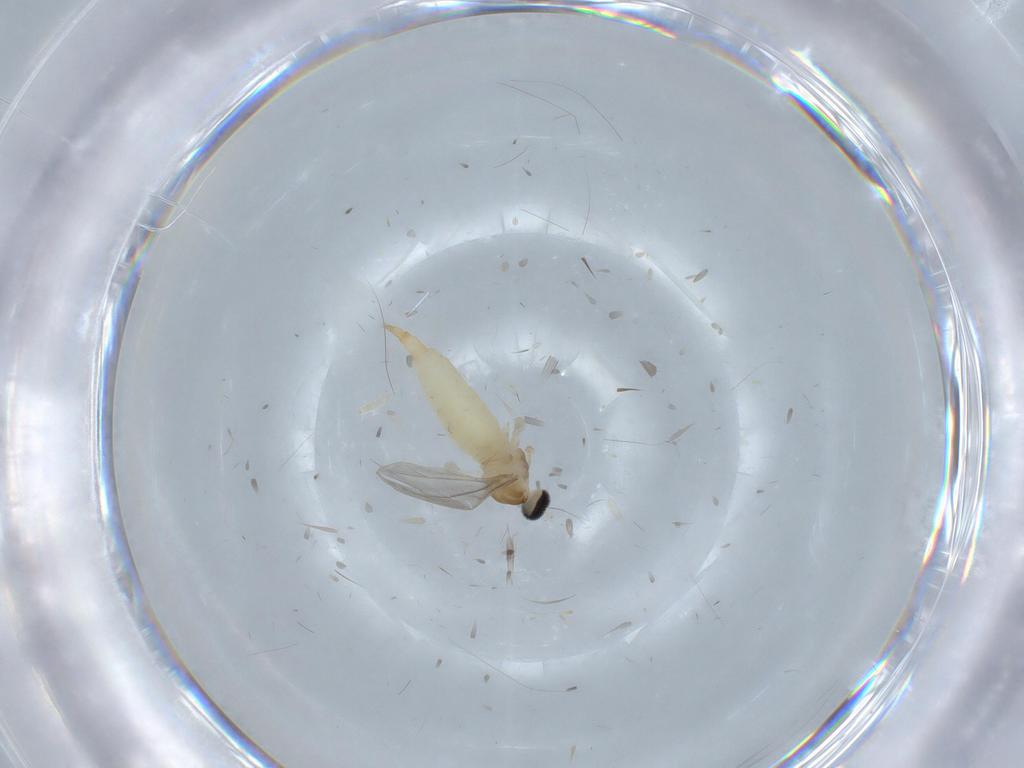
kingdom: Animalia
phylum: Arthropoda
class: Insecta
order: Diptera
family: Cecidomyiidae
